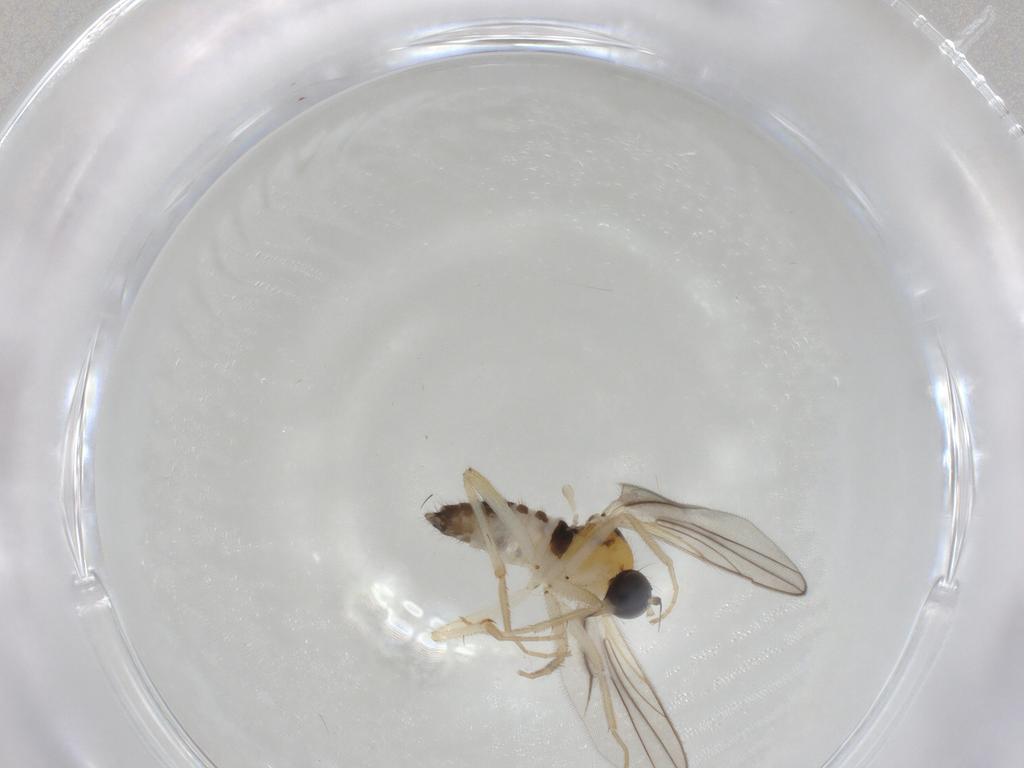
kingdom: Animalia
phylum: Arthropoda
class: Insecta
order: Diptera
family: Hybotidae
